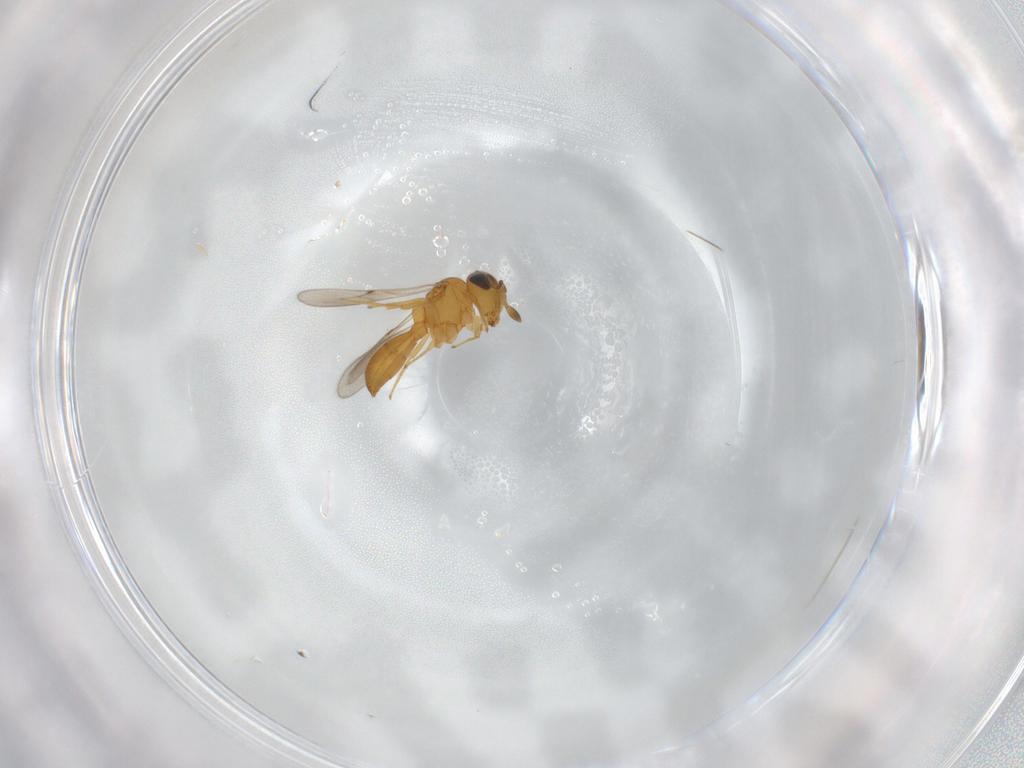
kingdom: Animalia
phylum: Arthropoda
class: Insecta
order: Hymenoptera
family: Scelionidae
